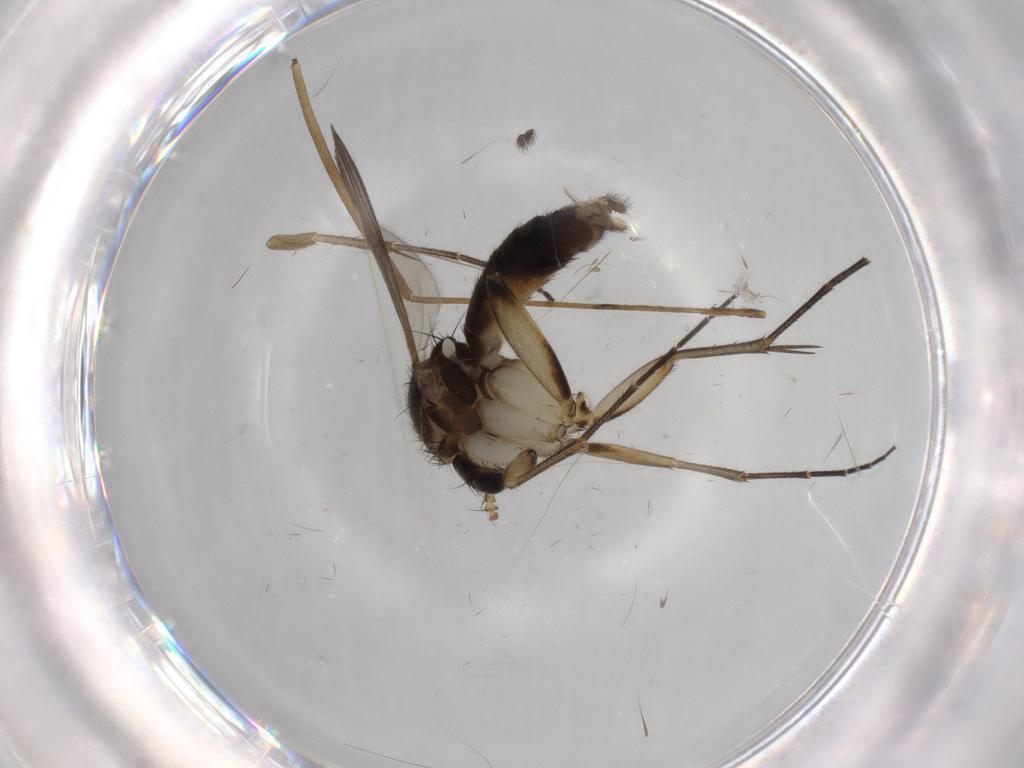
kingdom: Animalia
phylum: Arthropoda
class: Insecta
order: Diptera
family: Mycetophilidae
